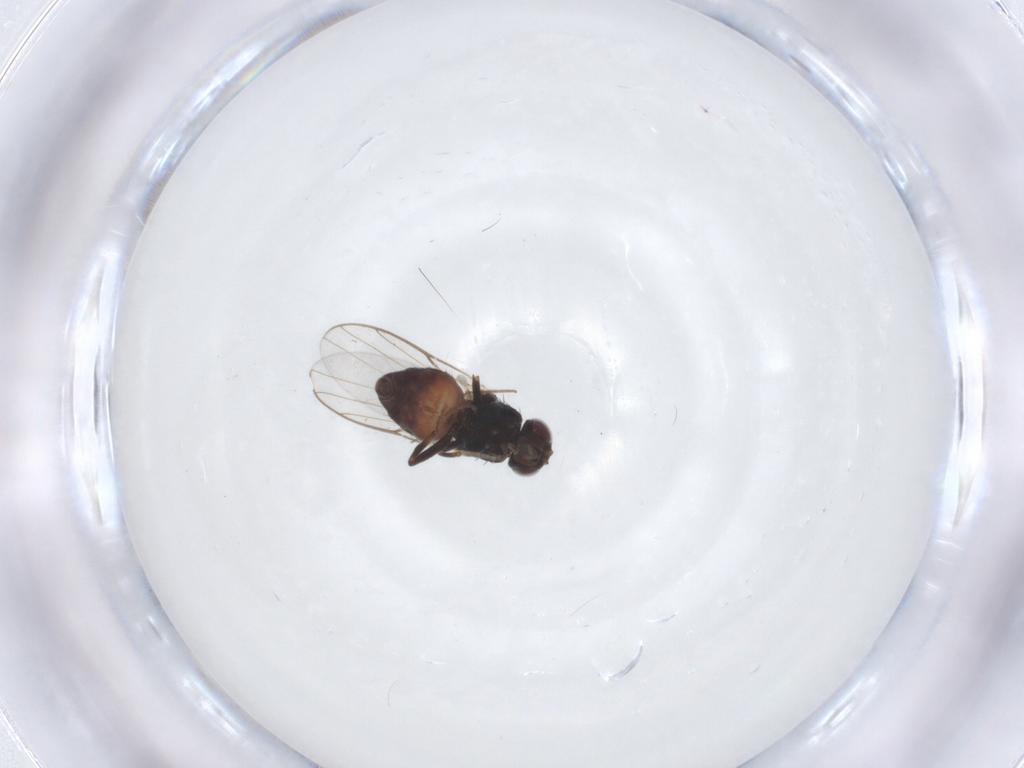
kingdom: Animalia
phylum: Arthropoda
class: Insecta
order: Diptera
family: Chloropidae
